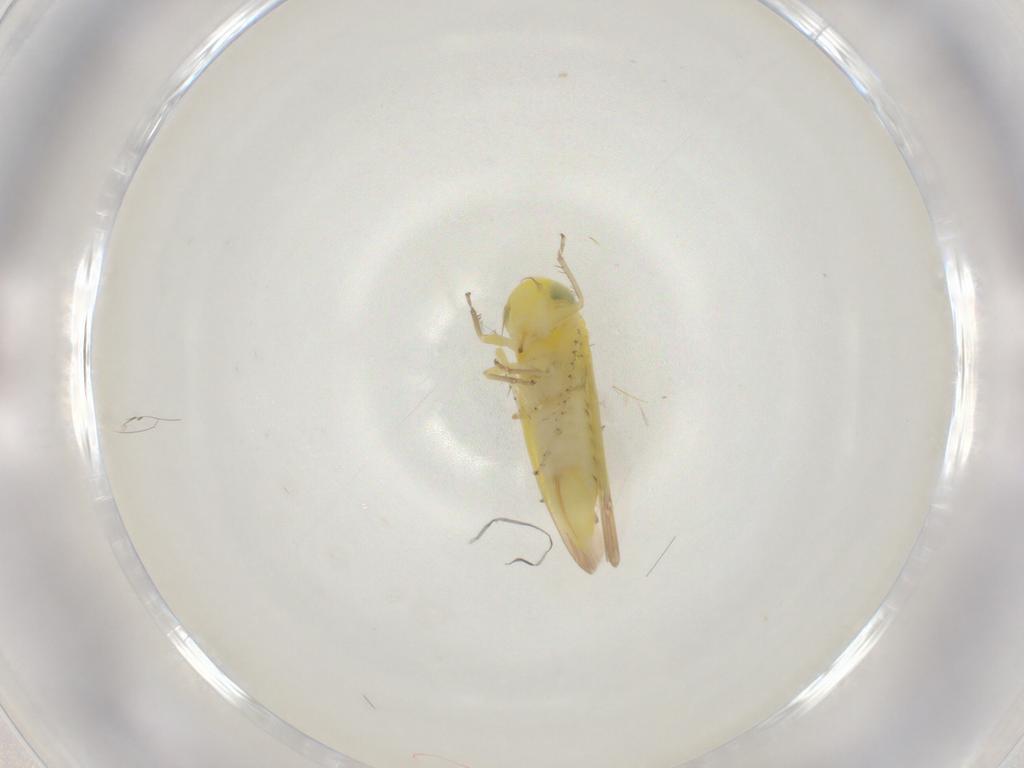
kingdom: Animalia
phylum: Arthropoda
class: Insecta
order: Hemiptera
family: Cicadellidae
